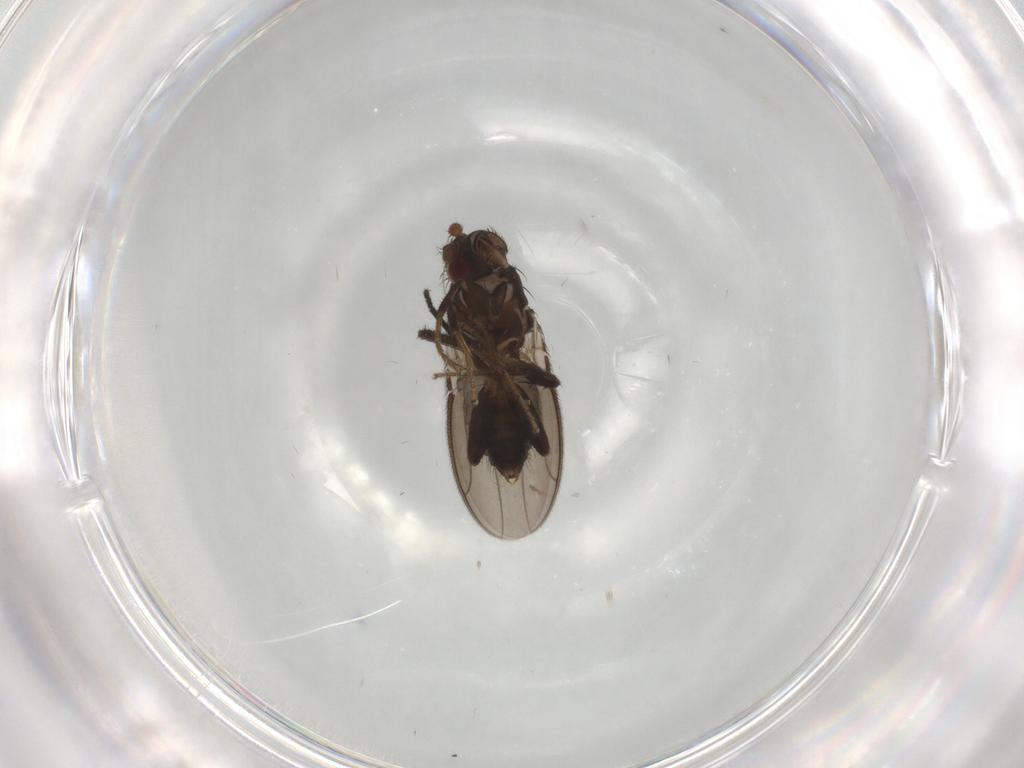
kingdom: Animalia
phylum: Arthropoda
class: Insecta
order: Diptera
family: Sphaeroceridae
